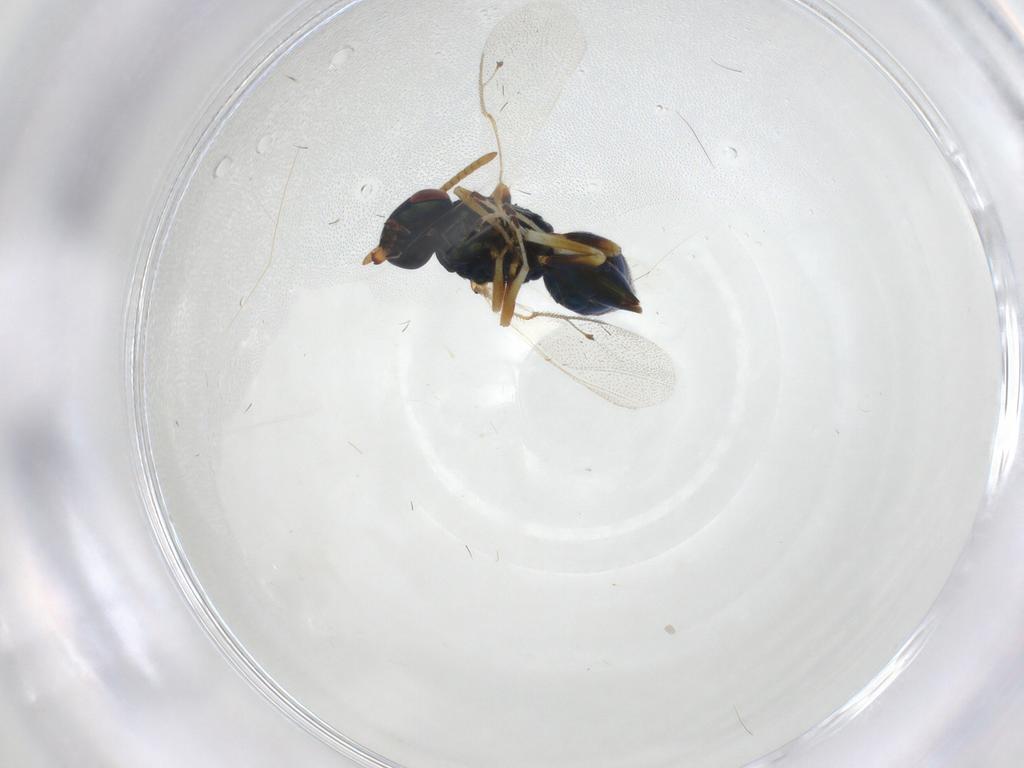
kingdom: Animalia
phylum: Arthropoda
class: Insecta
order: Hymenoptera
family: Pteromalidae
